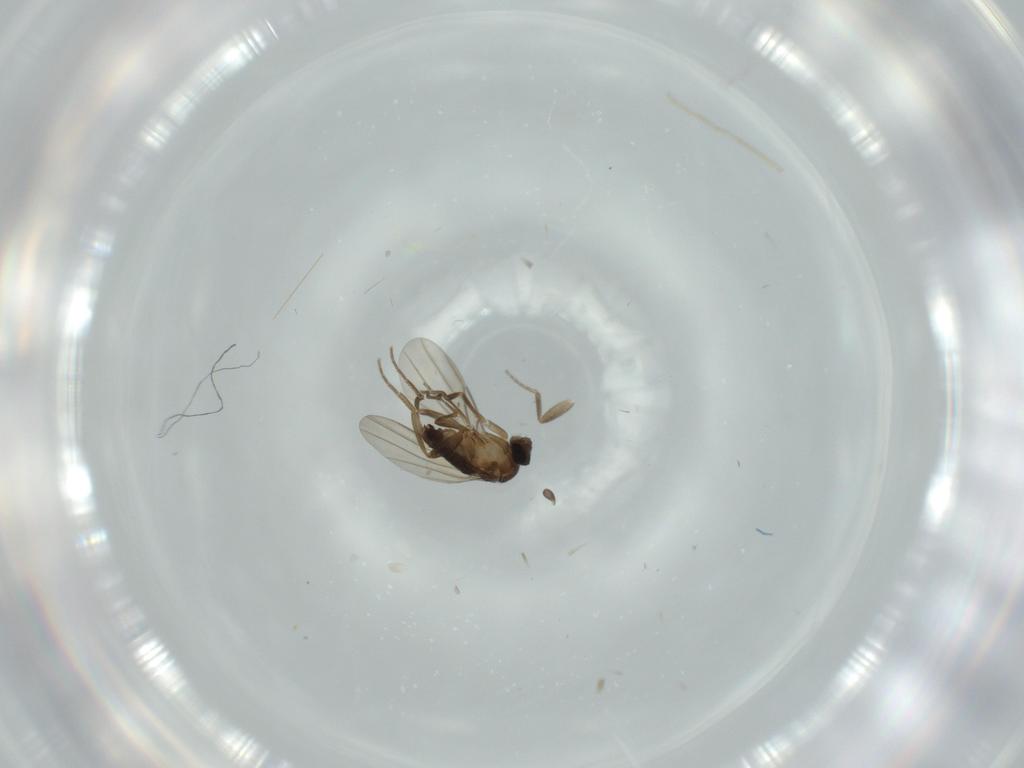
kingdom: Animalia
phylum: Arthropoda
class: Insecta
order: Diptera
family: Phoridae
